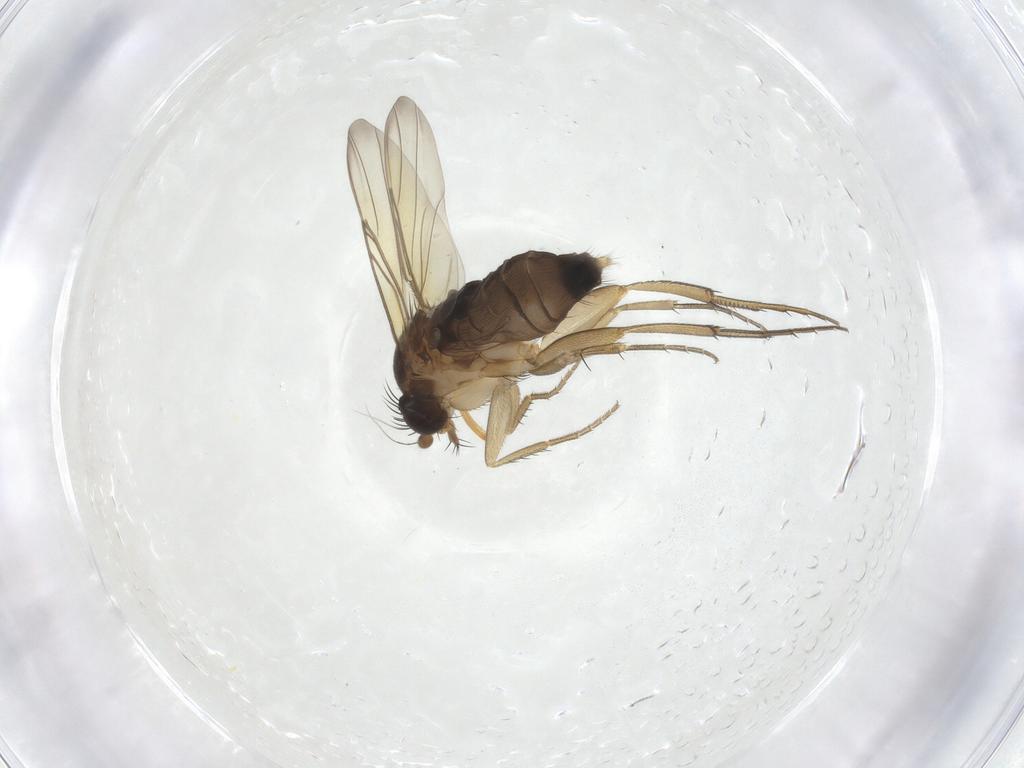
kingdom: Animalia
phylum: Arthropoda
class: Insecta
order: Diptera
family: Phoridae
